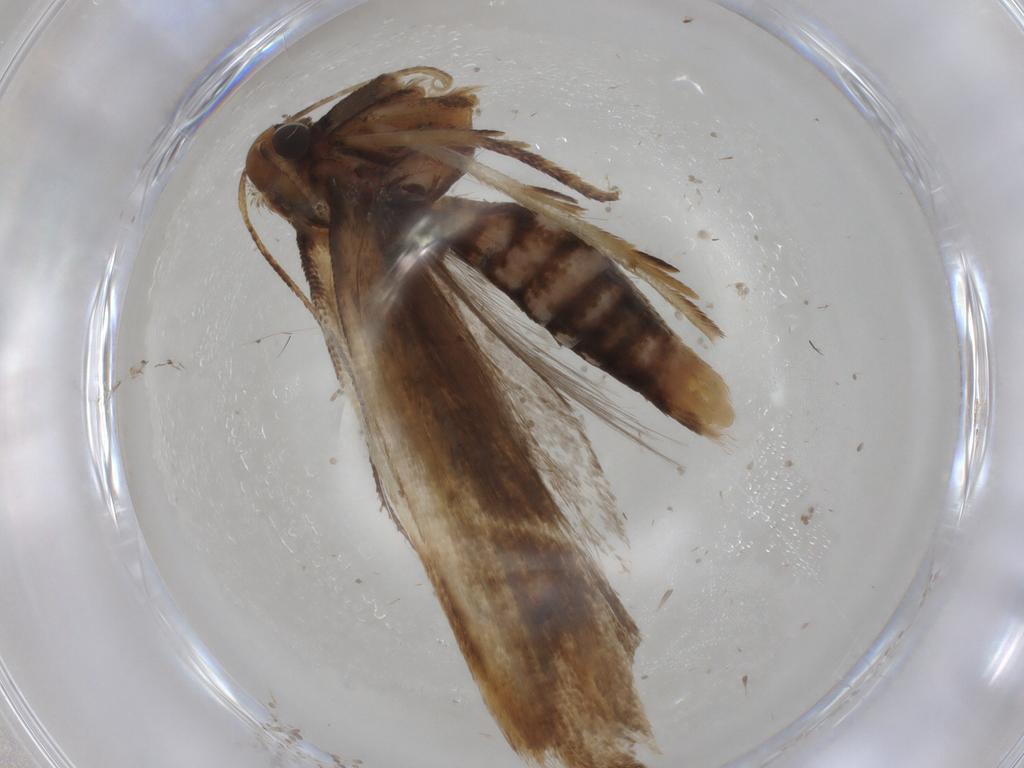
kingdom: Animalia
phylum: Arthropoda
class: Insecta
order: Lepidoptera
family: Gelechiidae
